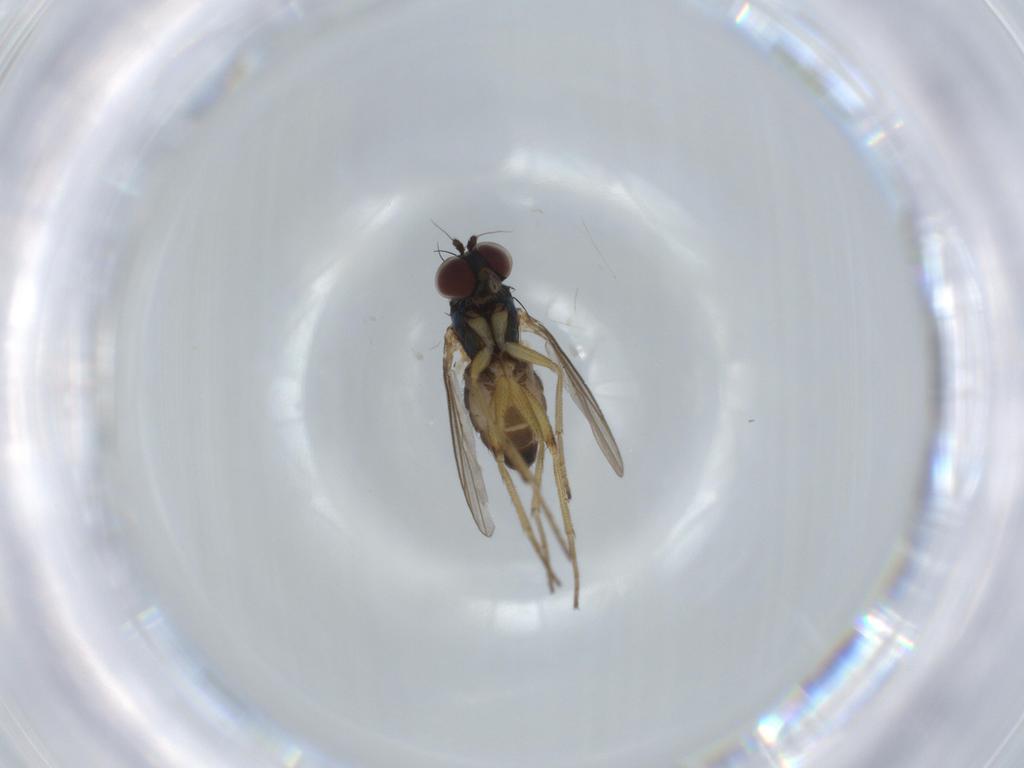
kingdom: Animalia
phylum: Arthropoda
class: Insecta
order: Diptera
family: Dolichopodidae
